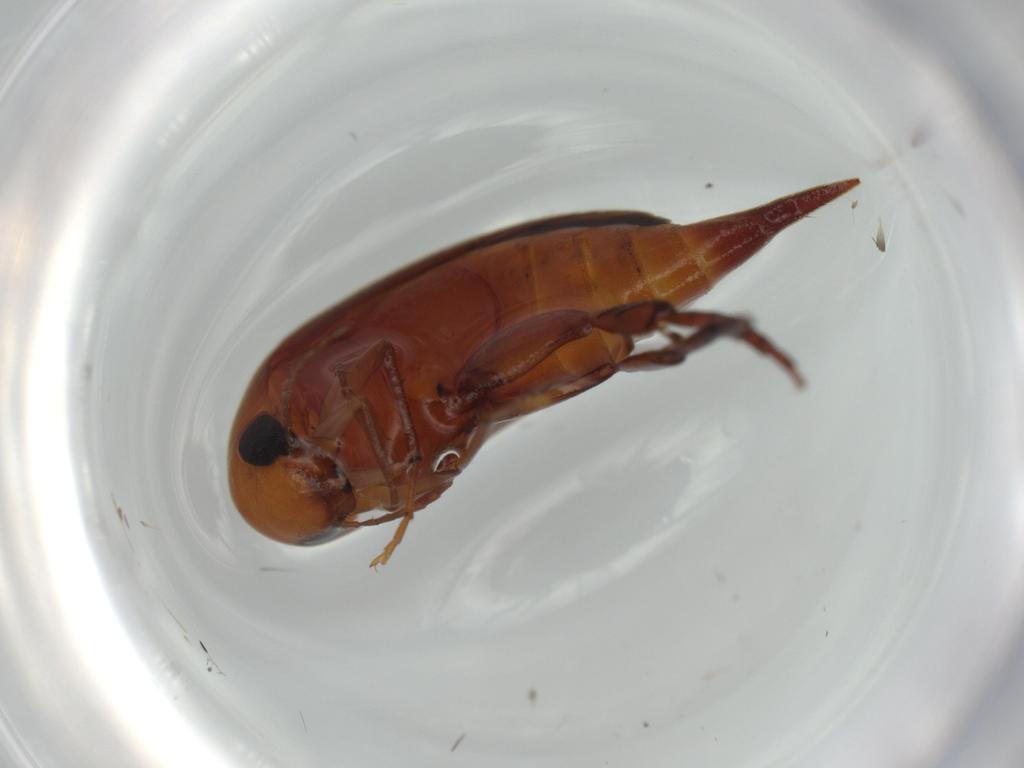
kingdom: Animalia
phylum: Arthropoda
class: Insecta
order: Coleoptera
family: Mordellidae
